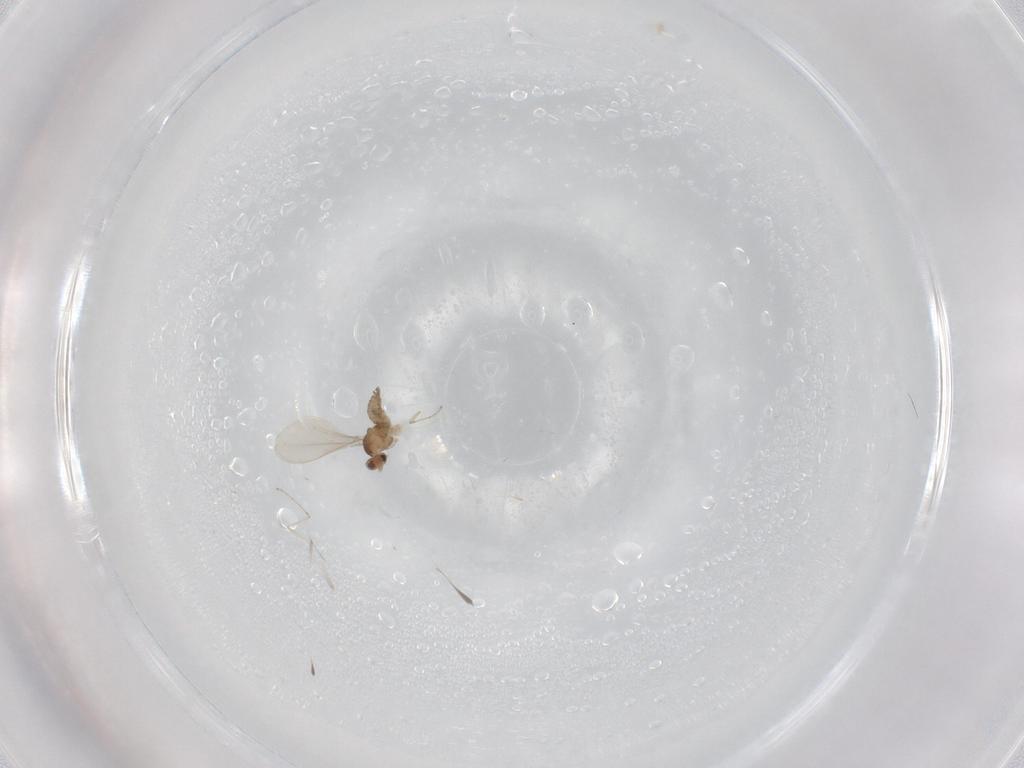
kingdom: Animalia
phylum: Arthropoda
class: Insecta
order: Diptera
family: Cecidomyiidae
